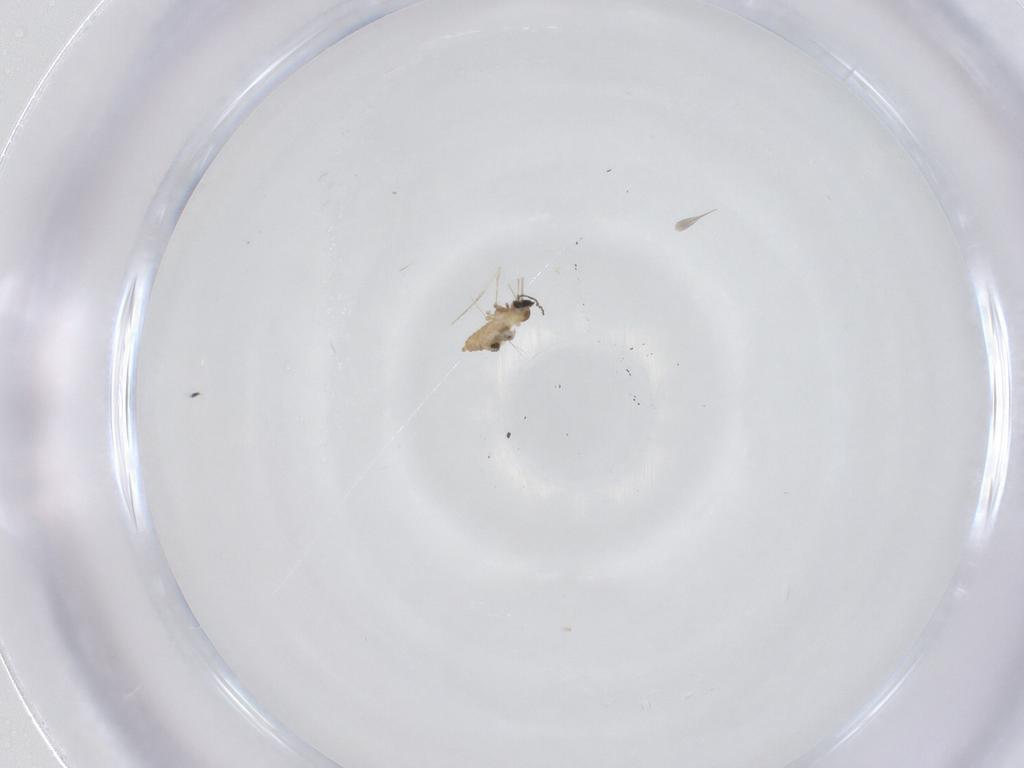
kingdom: Animalia
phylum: Arthropoda
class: Insecta
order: Diptera
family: Cecidomyiidae
